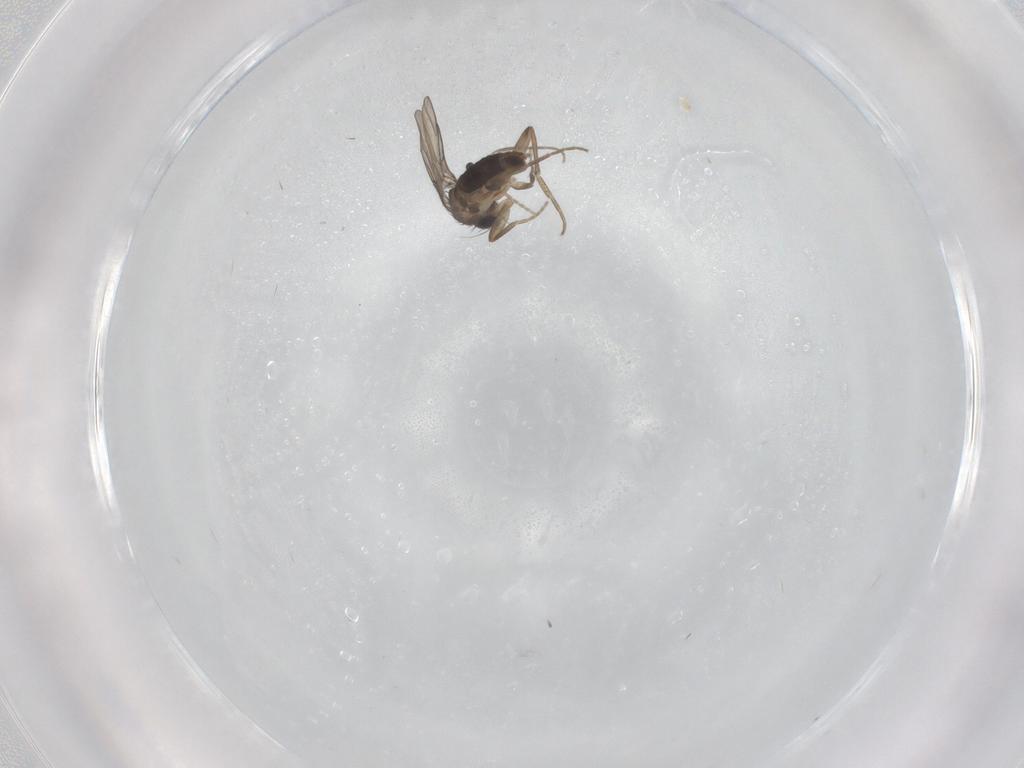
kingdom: Animalia
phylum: Arthropoda
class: Insecta
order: Diptera
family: Phoridae
